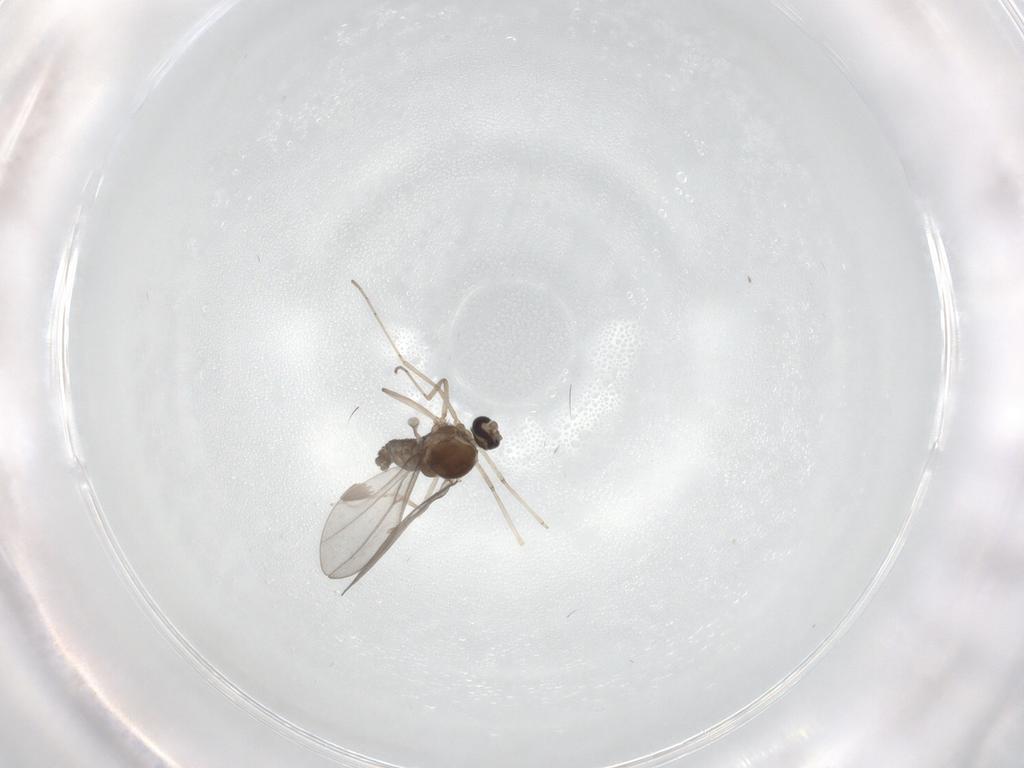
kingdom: Animalia
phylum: Arthropoda
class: Insecta
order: Diptera
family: Cecidomyiidae
